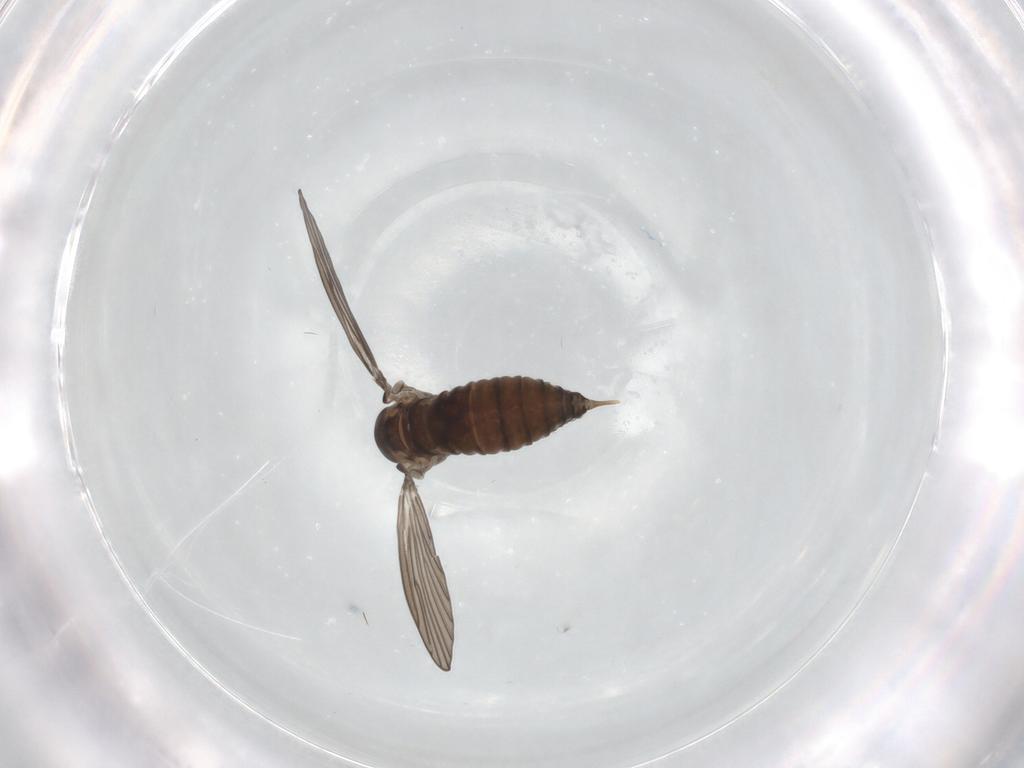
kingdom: Animalia
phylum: Arthropoda
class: Insecta
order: Diptera
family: Psychodidae
